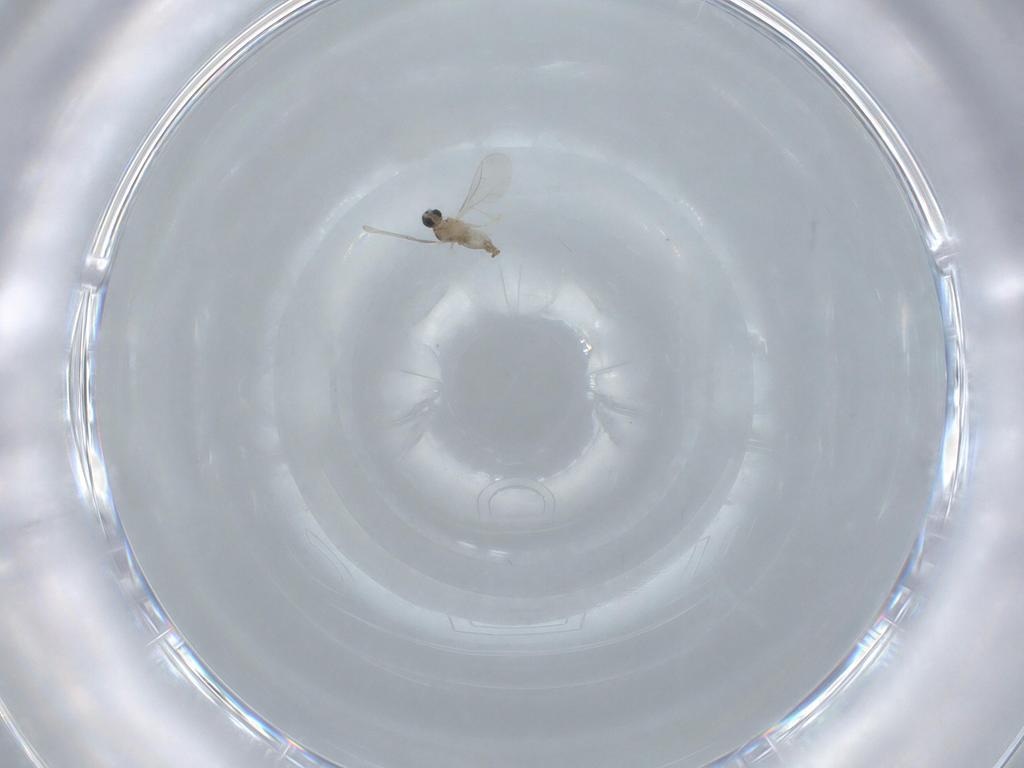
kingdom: Animalia
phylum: Arthropoda
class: Insecta
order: Diptera
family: Cecidomyiidae
